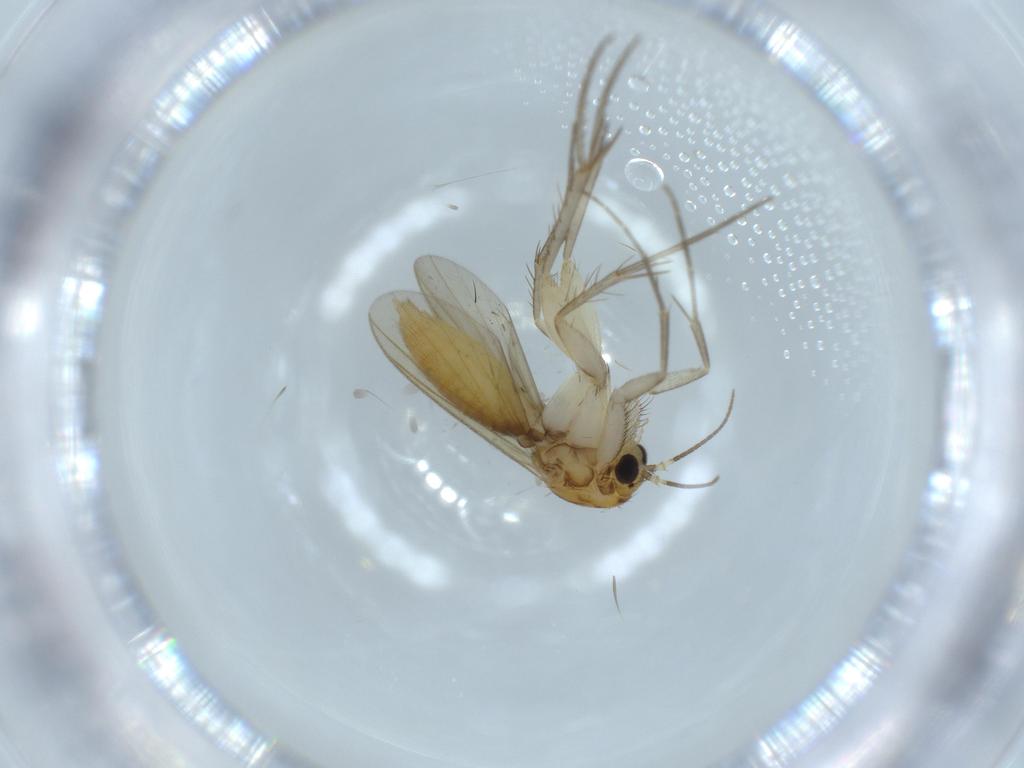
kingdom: Animalia
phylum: Arthropoda
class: Insecta
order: Diptera
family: Mycetophilidae
